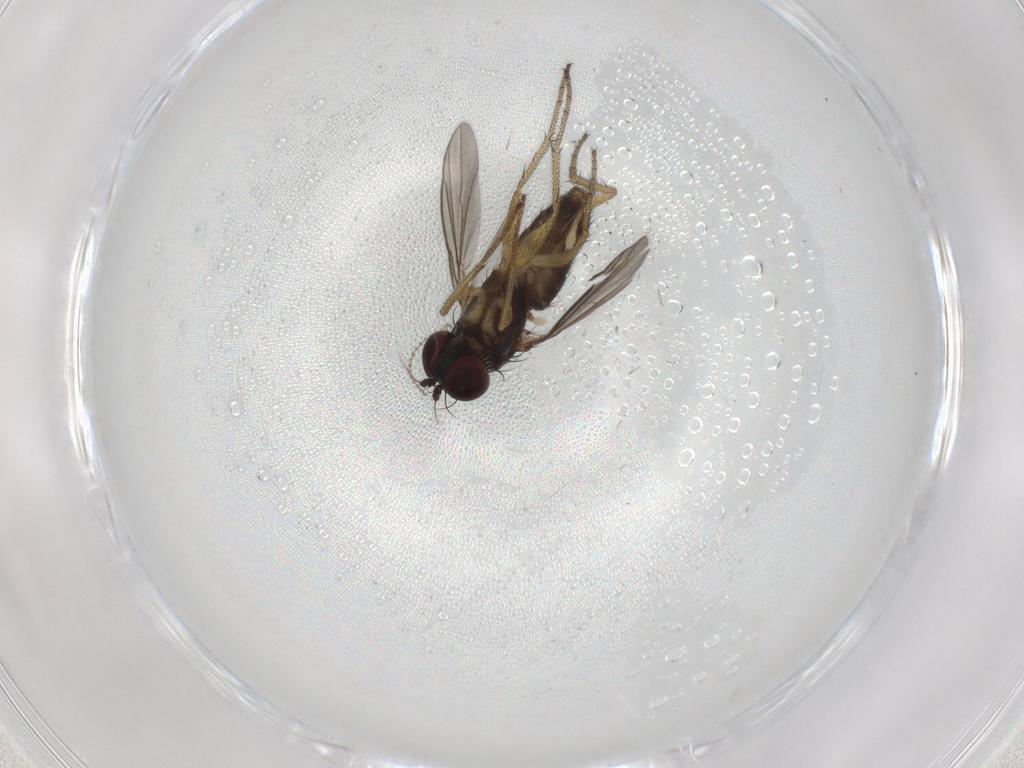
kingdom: Animalia
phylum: Arthropoda
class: Insecta
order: Diptera
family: Dolichopodidae
